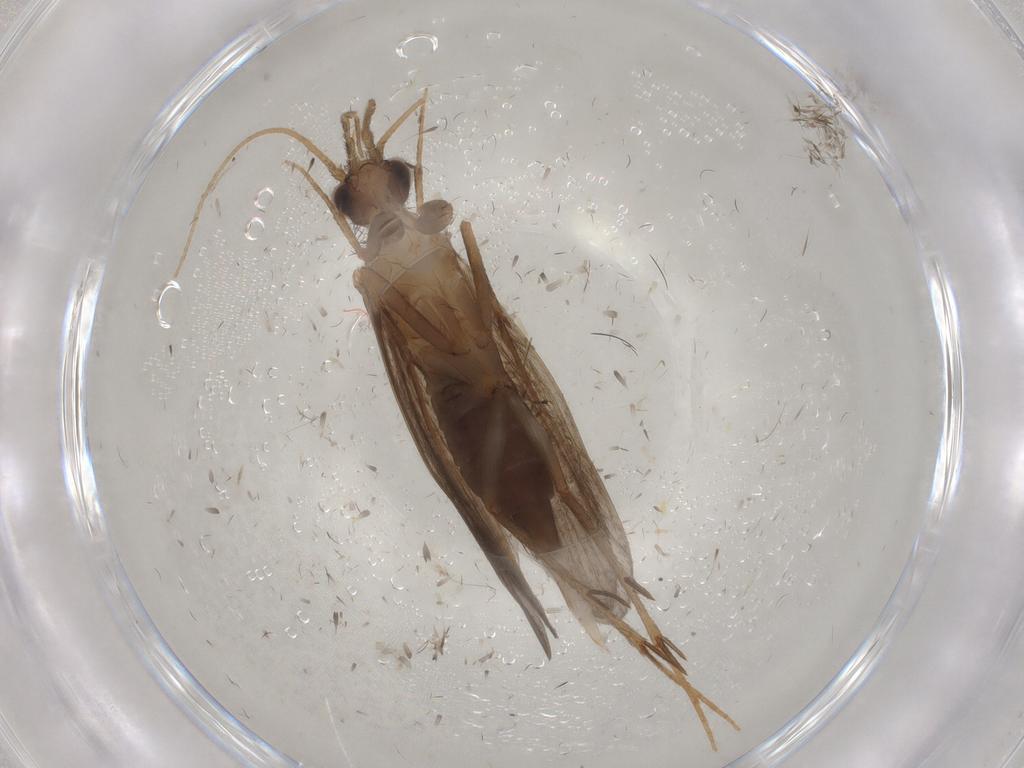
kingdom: Animalia
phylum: Arthropoda
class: Insecta
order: Trichoptera
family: Philopotamidae
